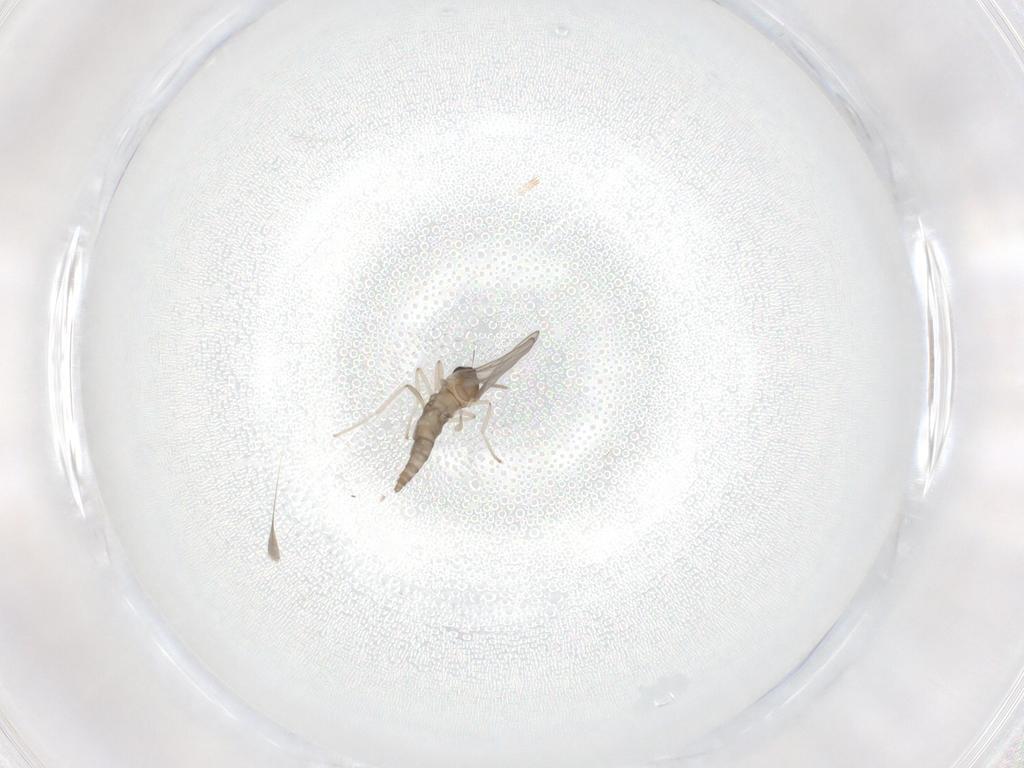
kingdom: Animalia
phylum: Arthropoda
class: Insecta
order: Diptera
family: Cecidomyiidae
